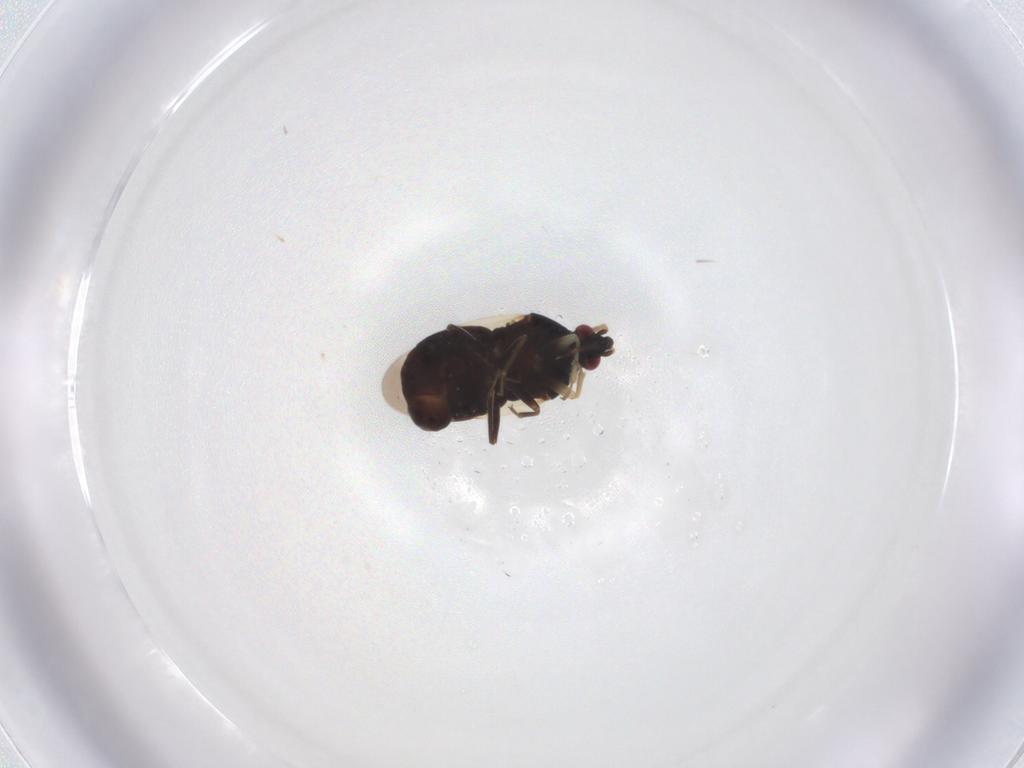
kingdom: Animalia
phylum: Arthropoda
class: Insecta
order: Hemiptera
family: Anthocoridae
